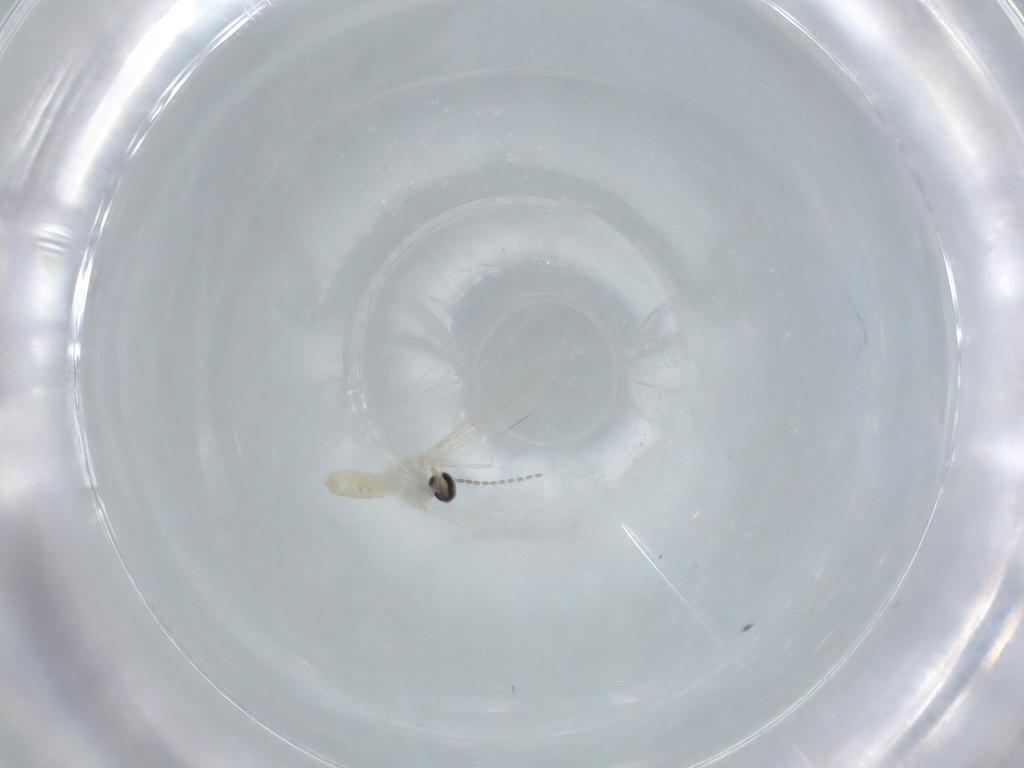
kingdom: Animalia
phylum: Arthropoda
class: Insecta
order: Diptera
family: Cecidomyiidae
